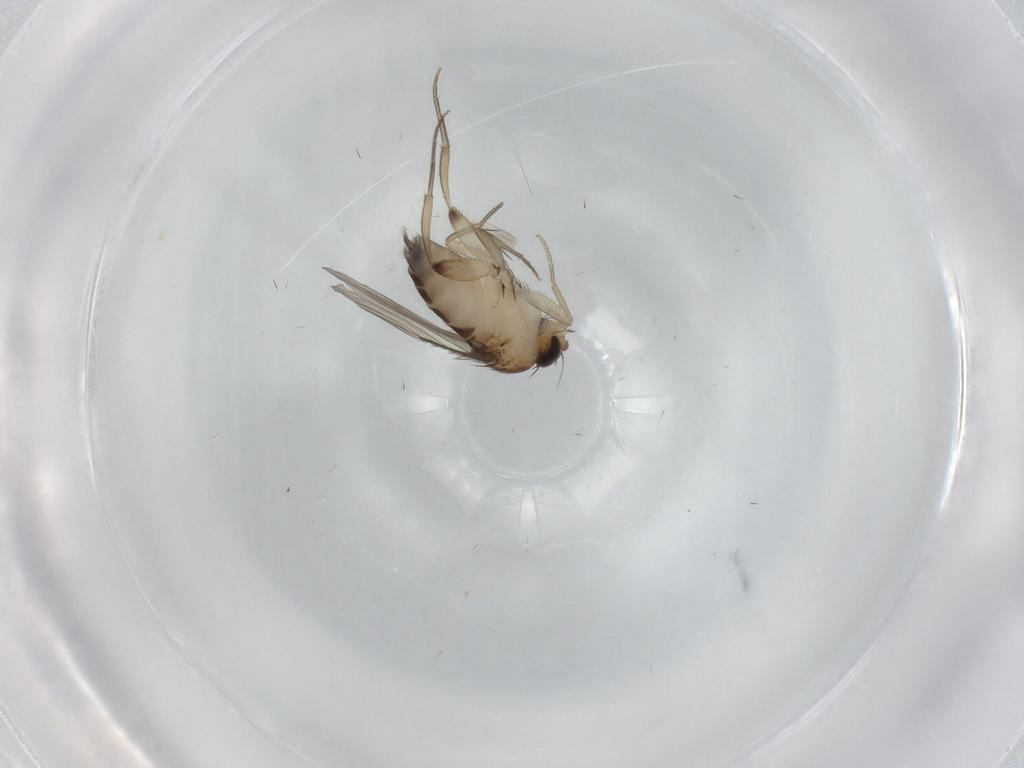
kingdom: Animalia
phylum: Arthropoda
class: Insecta
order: Diptera
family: Phoridae
